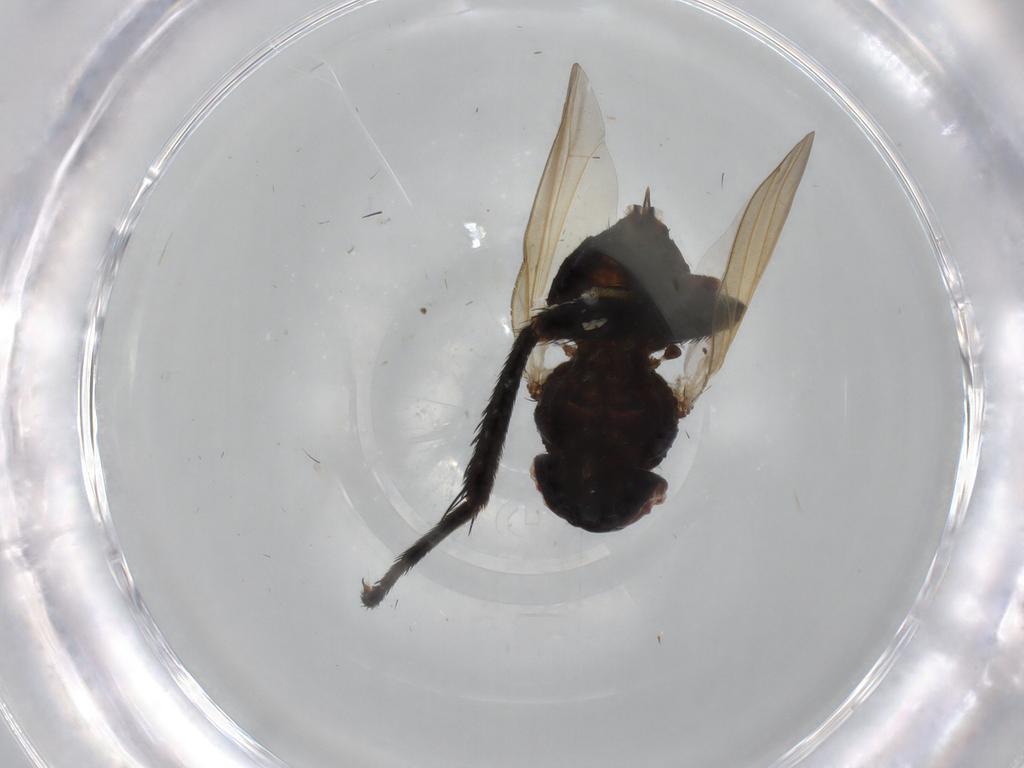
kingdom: Animalia
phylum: Arthropoda
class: Insecta
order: Diptera
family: Tachinidae
